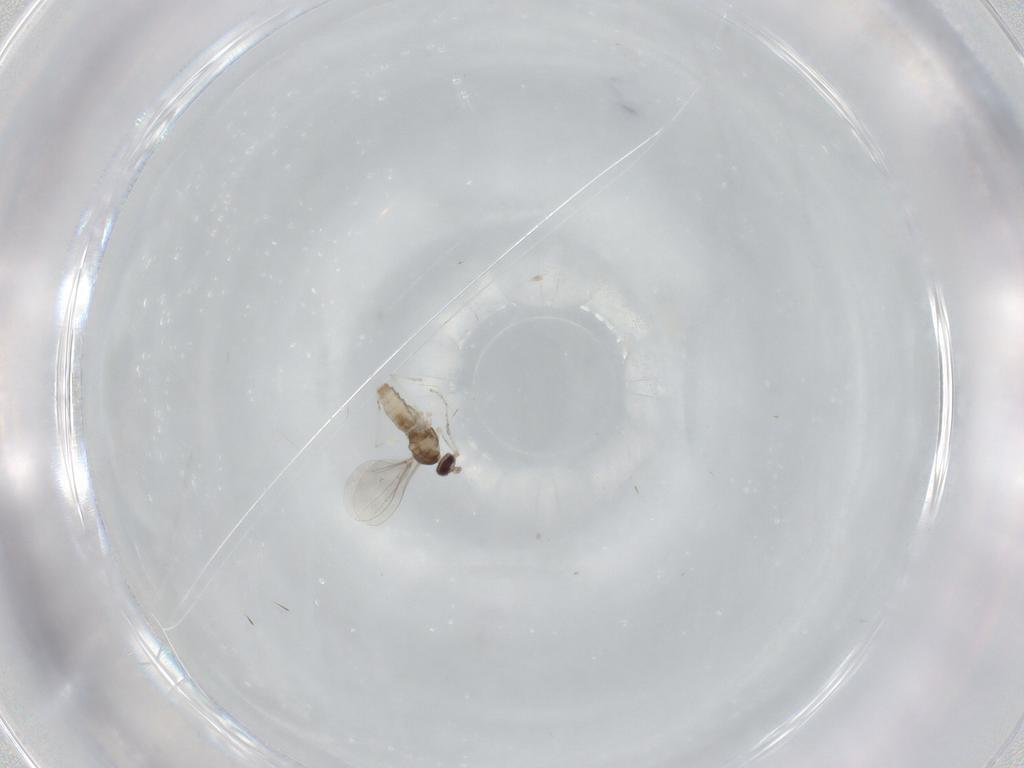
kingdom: Animalia
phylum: Arthropoda
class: Insecta
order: Diptera
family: Cecidomyiidae
